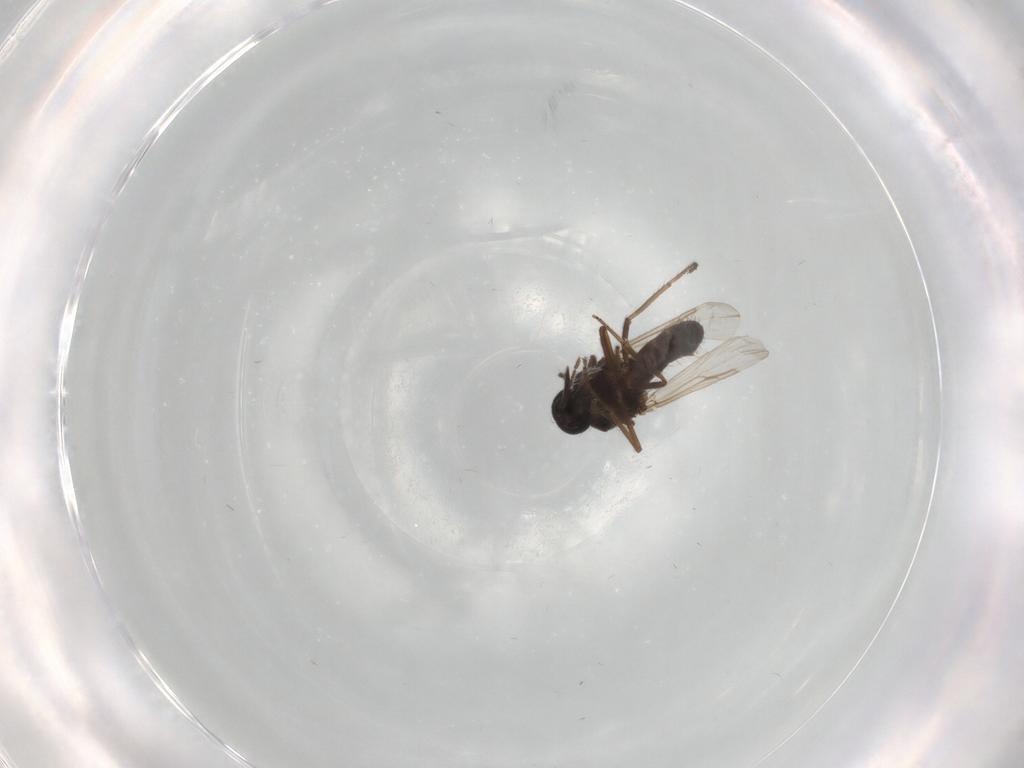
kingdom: Animalia
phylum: Arthropoda
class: Insecta
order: Diptera
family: Ceratopogonidae
